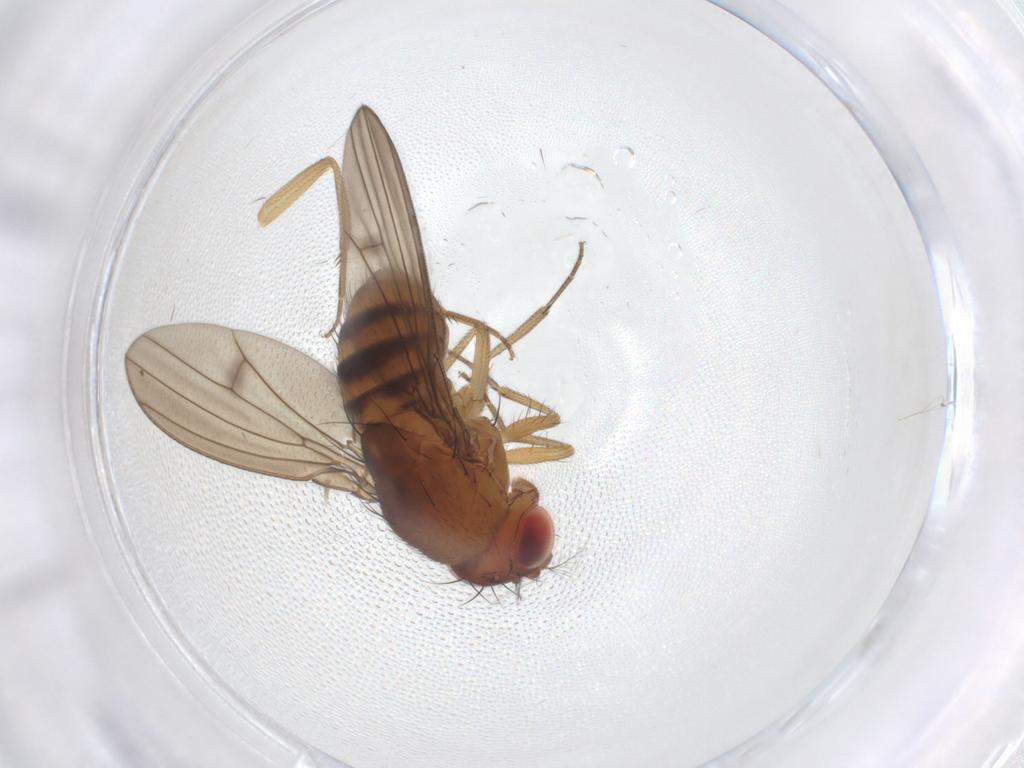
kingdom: Animalia
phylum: Arthropoda
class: Insecta
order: Diptera
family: Drosophilidae
